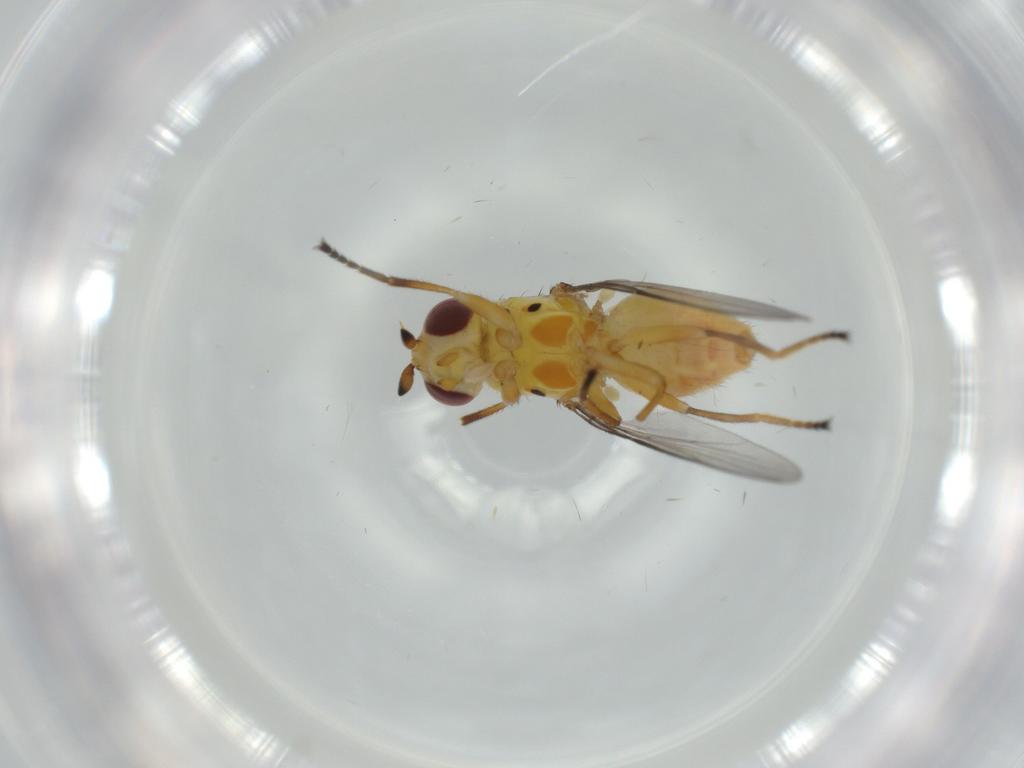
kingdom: Animalia
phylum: Arthropoda
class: Insecta
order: Diptera
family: Chloropidae
